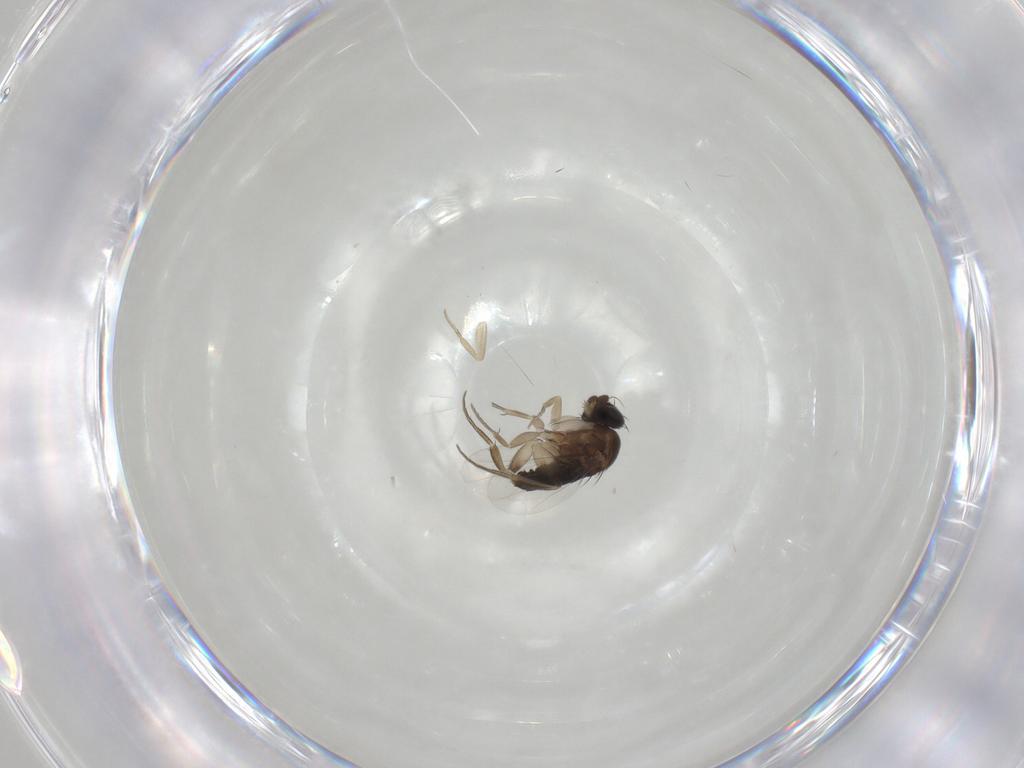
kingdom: Animalia
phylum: Arthropoda
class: Insecta
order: Diptera
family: Phoridae
